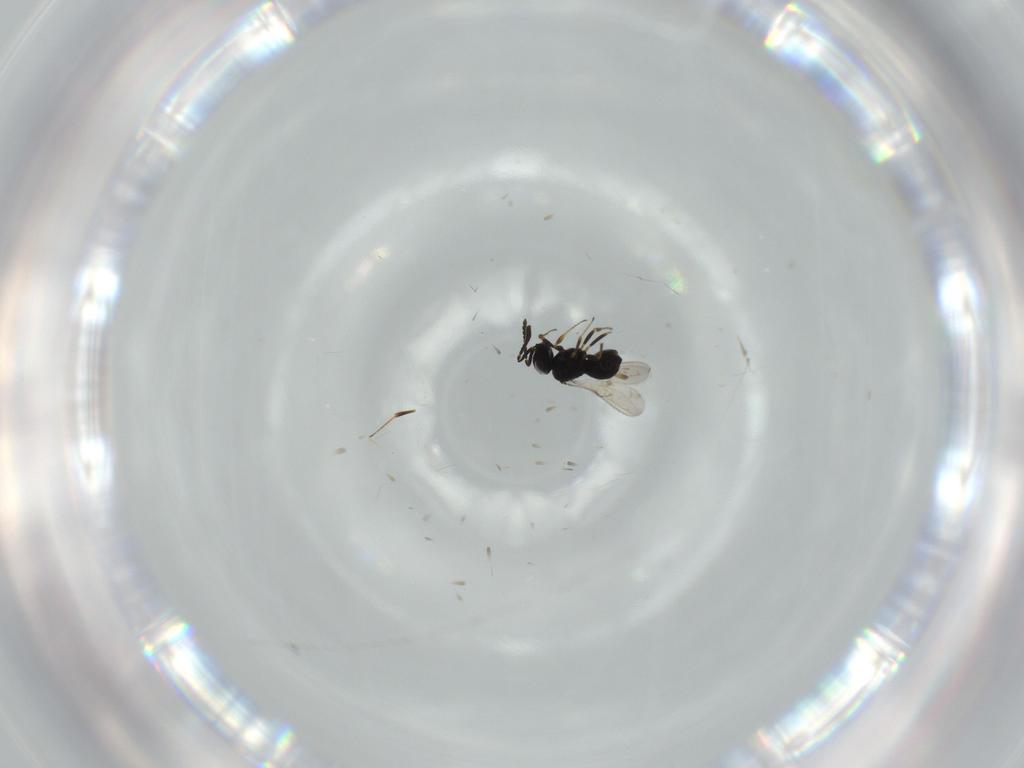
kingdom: Animalia
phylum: Arthropoda
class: Insecta
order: Hymenoptera
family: Scelionidae
